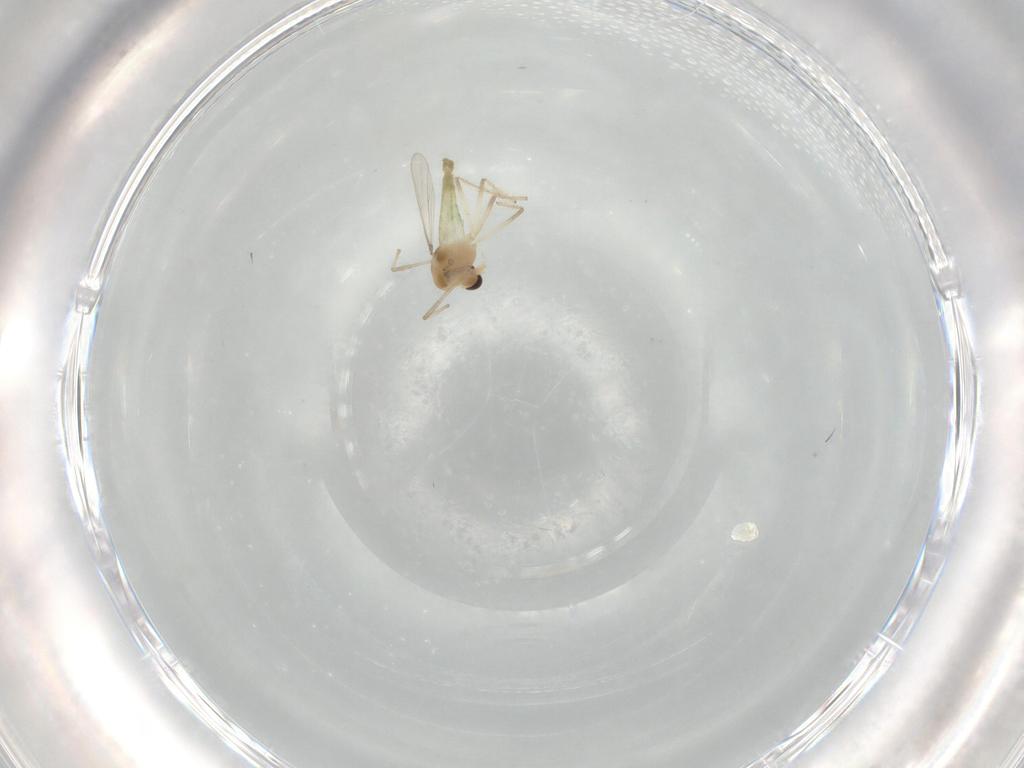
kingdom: Animalia
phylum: Arthropoda
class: Insecta
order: Diptera
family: Chironomidae
